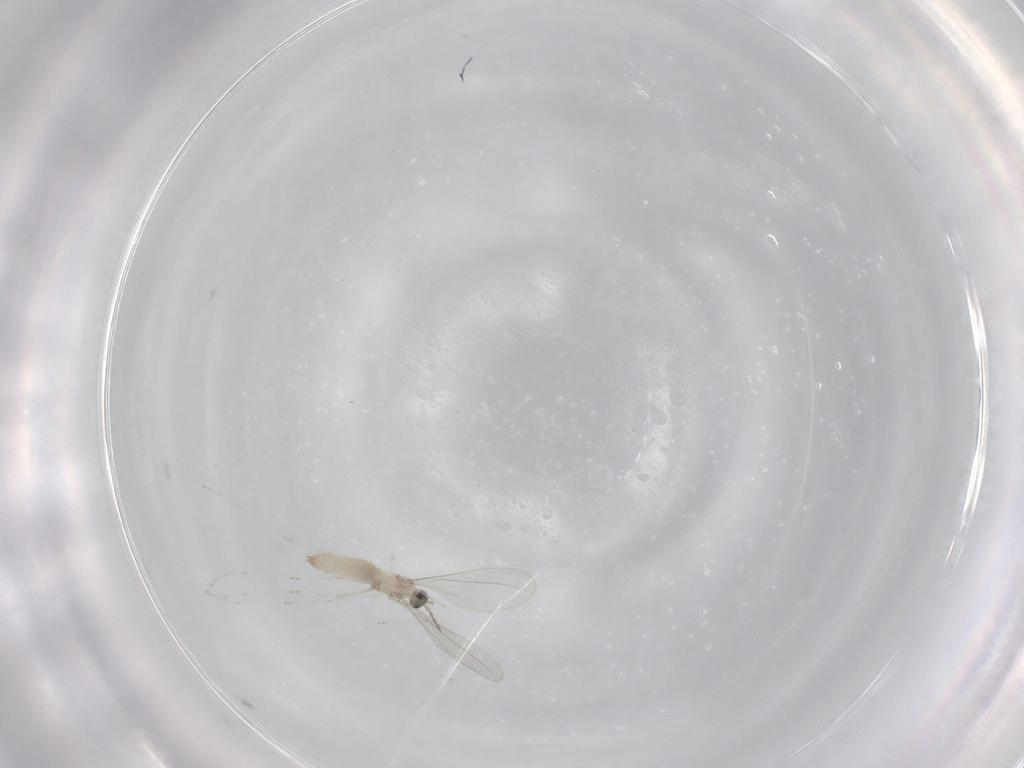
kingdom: Animalia
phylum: Arthropoda
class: Insecta
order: Diptera
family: Cecidomyiidae
